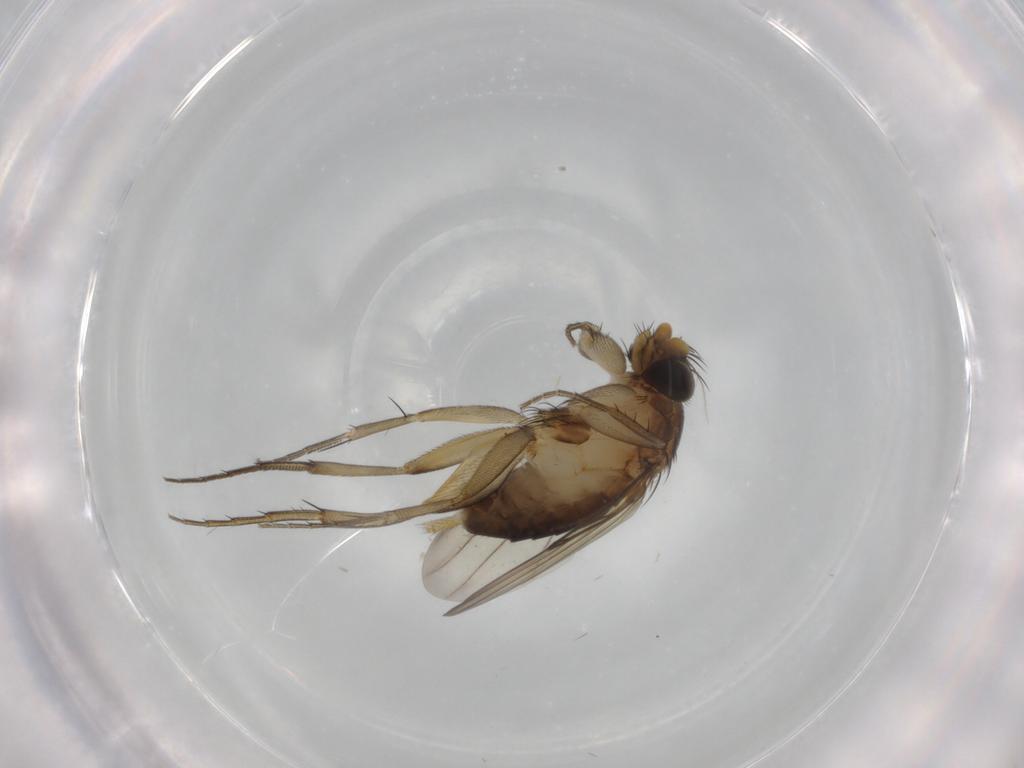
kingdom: Animalia
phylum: Arthropoda
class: Insecta
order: Diptera
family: Phoridae
